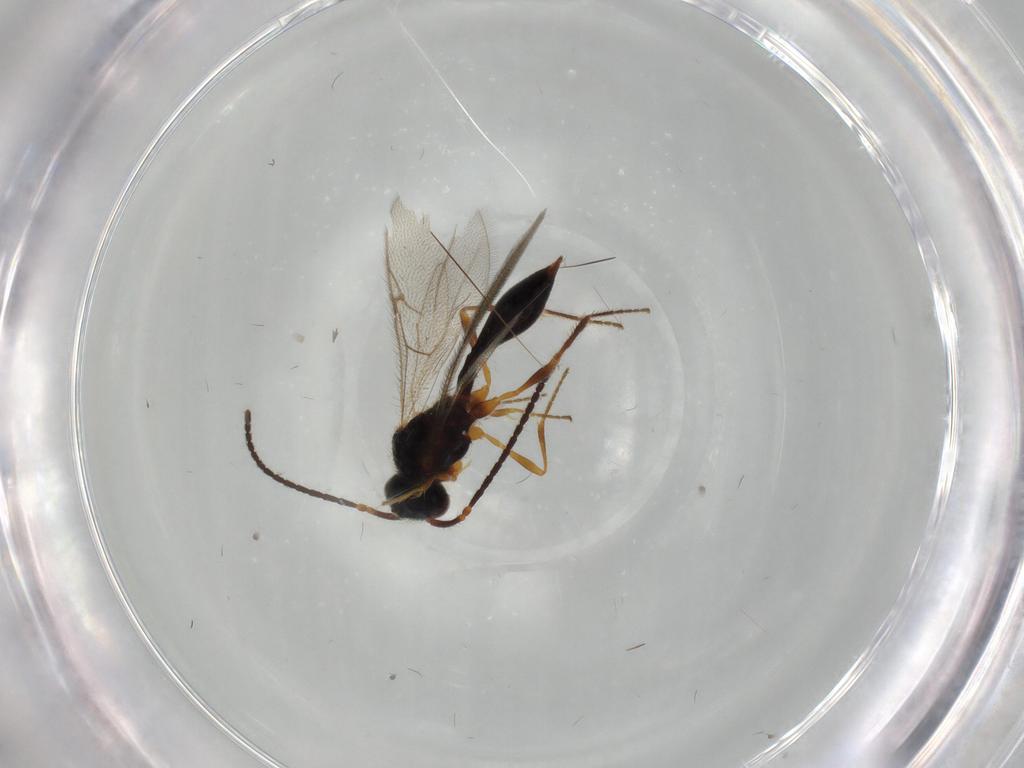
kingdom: Animalia
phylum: Arthropoda
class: Insecta
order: Hymenoptera
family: Diapriidae
